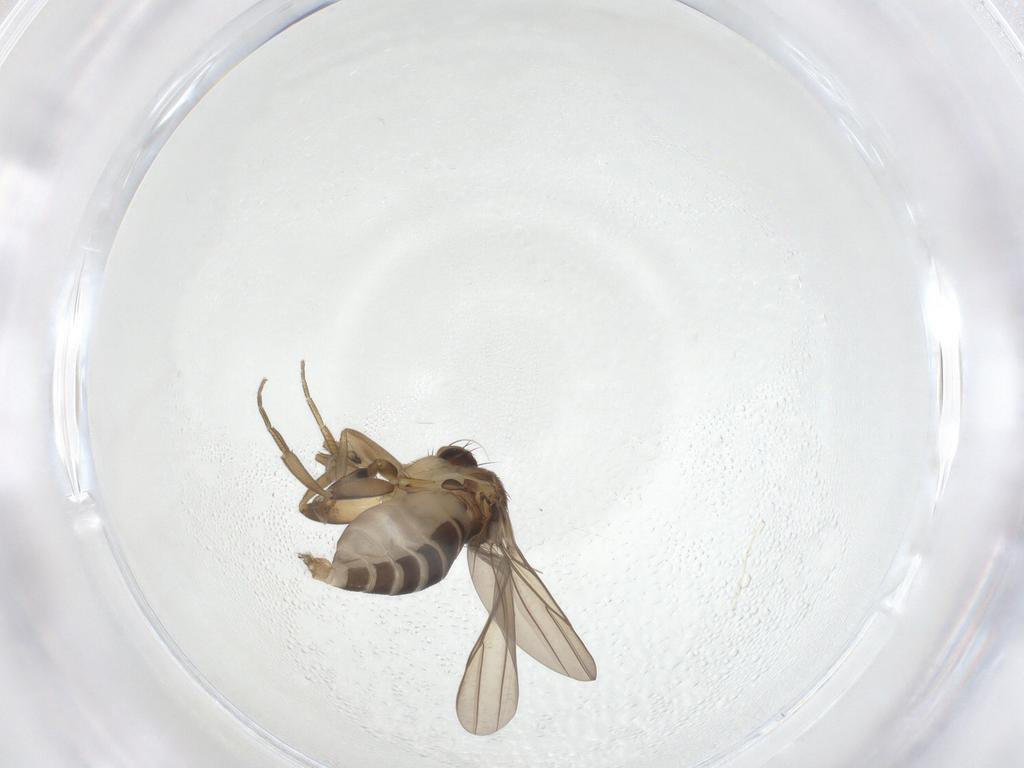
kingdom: Animalia
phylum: Arthropoda
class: Insecta
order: Diptera
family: Phoridae
